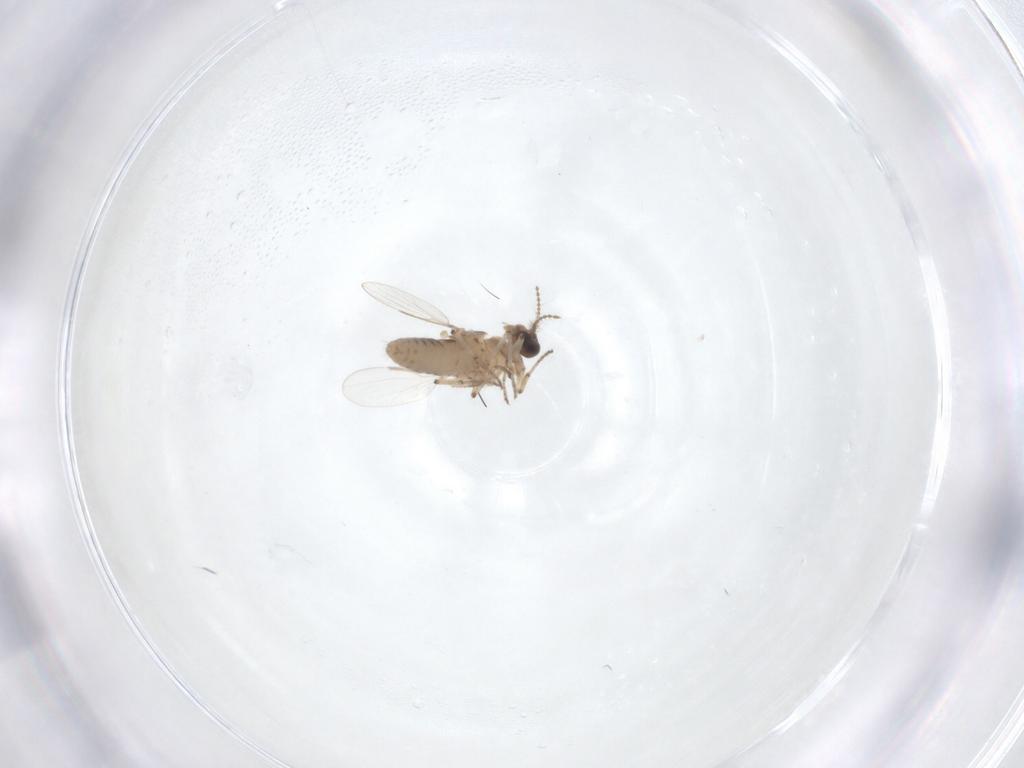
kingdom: Animalia
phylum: Arthropoda
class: Insecta
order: Diptera
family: Ceratopogonidae
